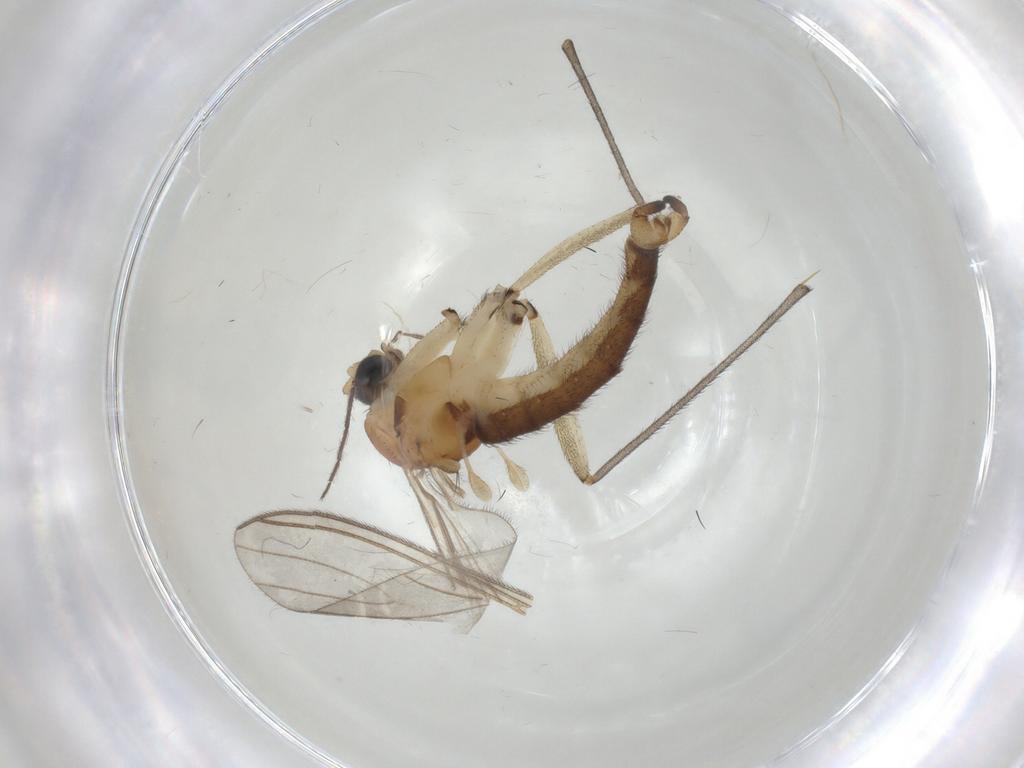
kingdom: Animalia
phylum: Arthropoda
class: Insecta
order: Diptera
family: Sciaridae
